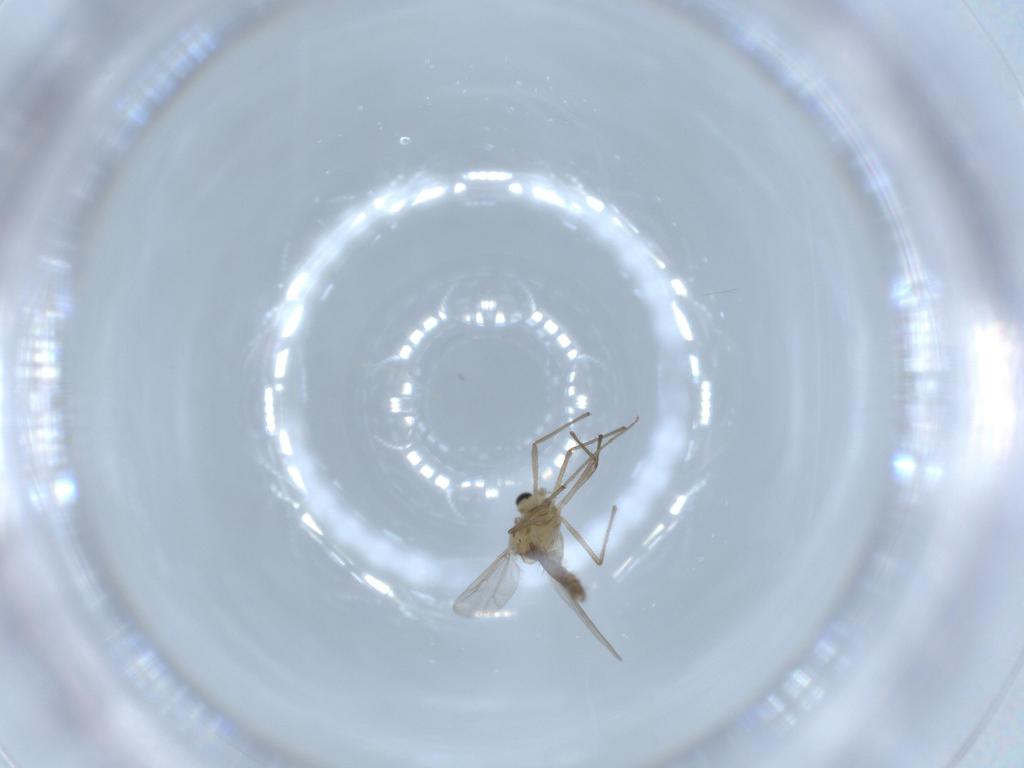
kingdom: Animalia
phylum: Arthropoda
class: Insecta
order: Diptera
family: Chironomidae
